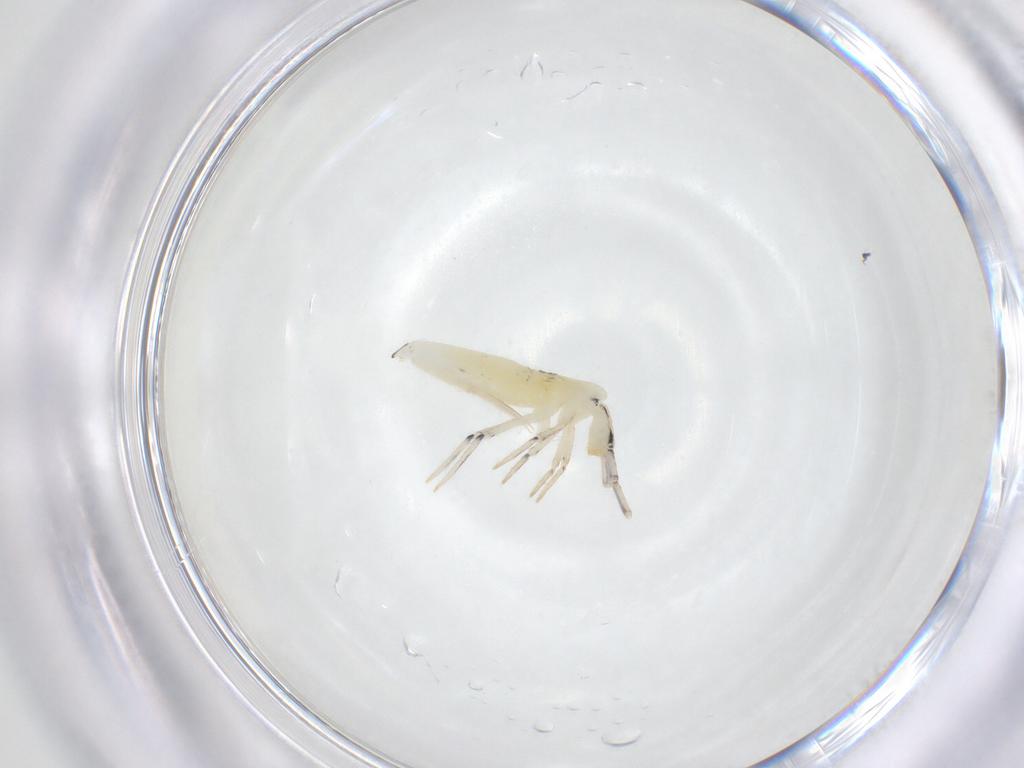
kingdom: Animalia
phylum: Arthropoda
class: Collembola
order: Entomobryomorpha
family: Entomobryidae
